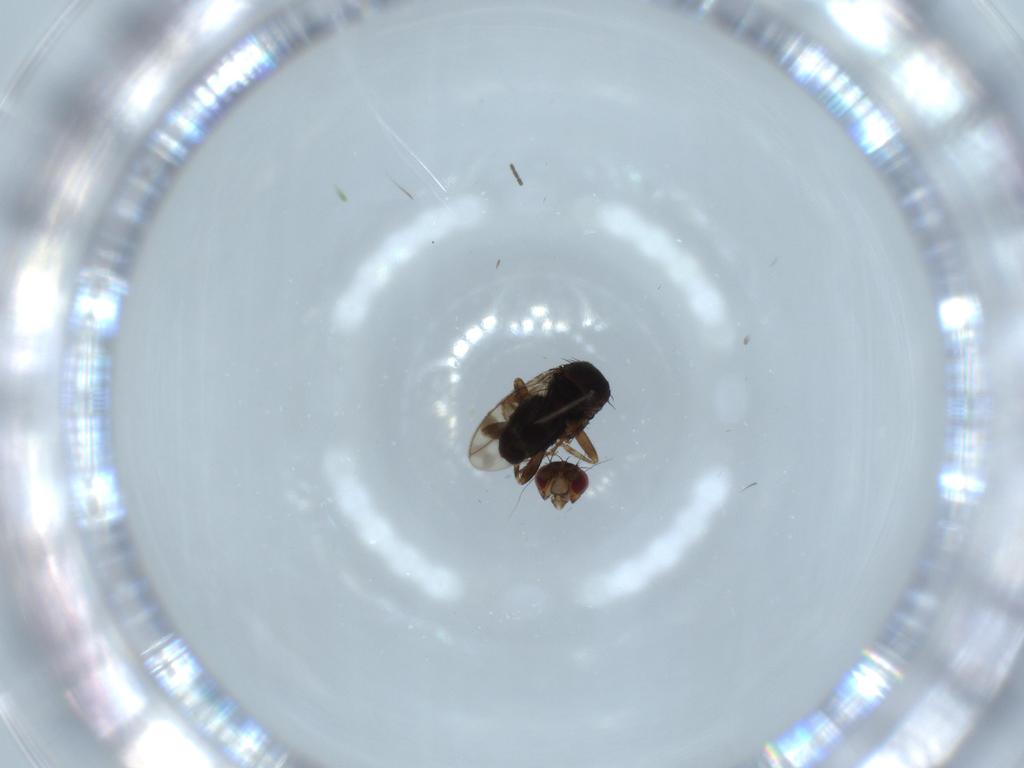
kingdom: Animalia
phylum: Arthropoda
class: Insecta
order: Diptera
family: Sphaeroceridae
